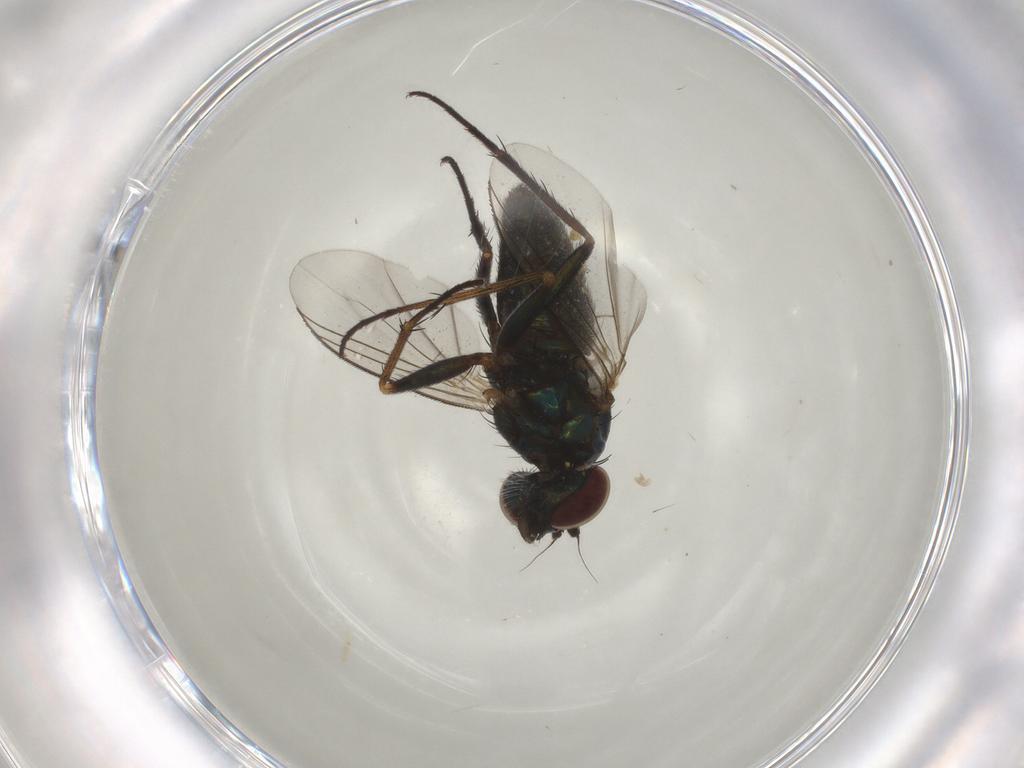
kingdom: Animalia
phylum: Arthropoda
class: Insecta
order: Diptera
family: Dolichopodidae
